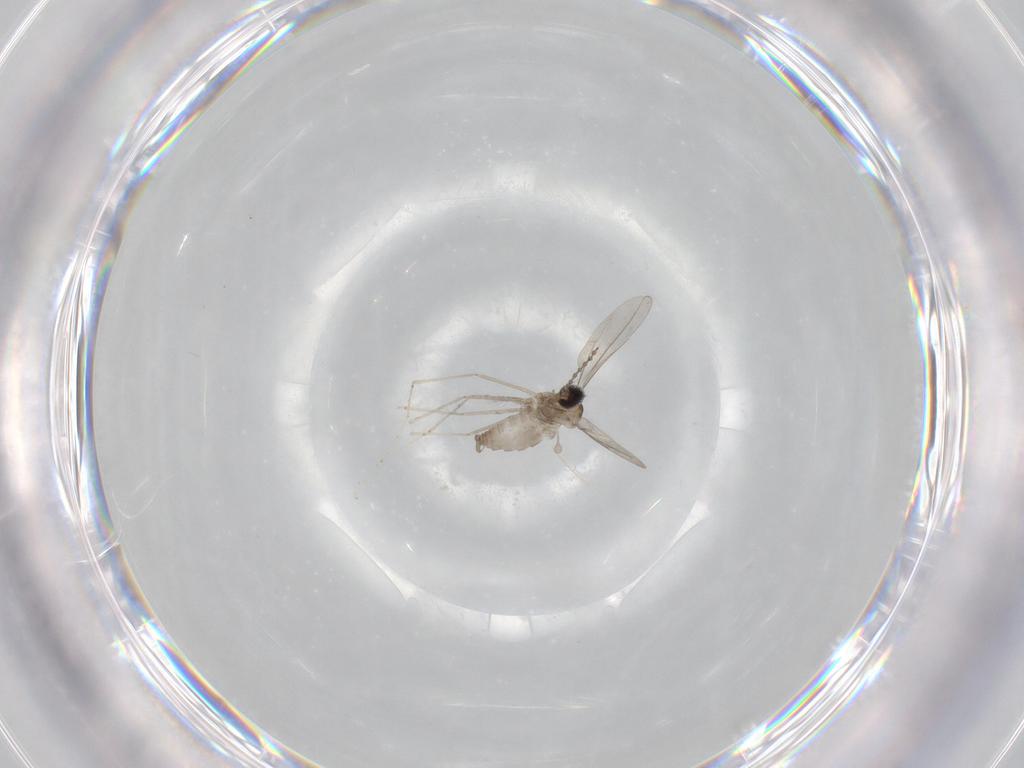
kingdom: Animalia
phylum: Arthropoda
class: Insecta
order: Diptera
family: Cecidomyiidae
